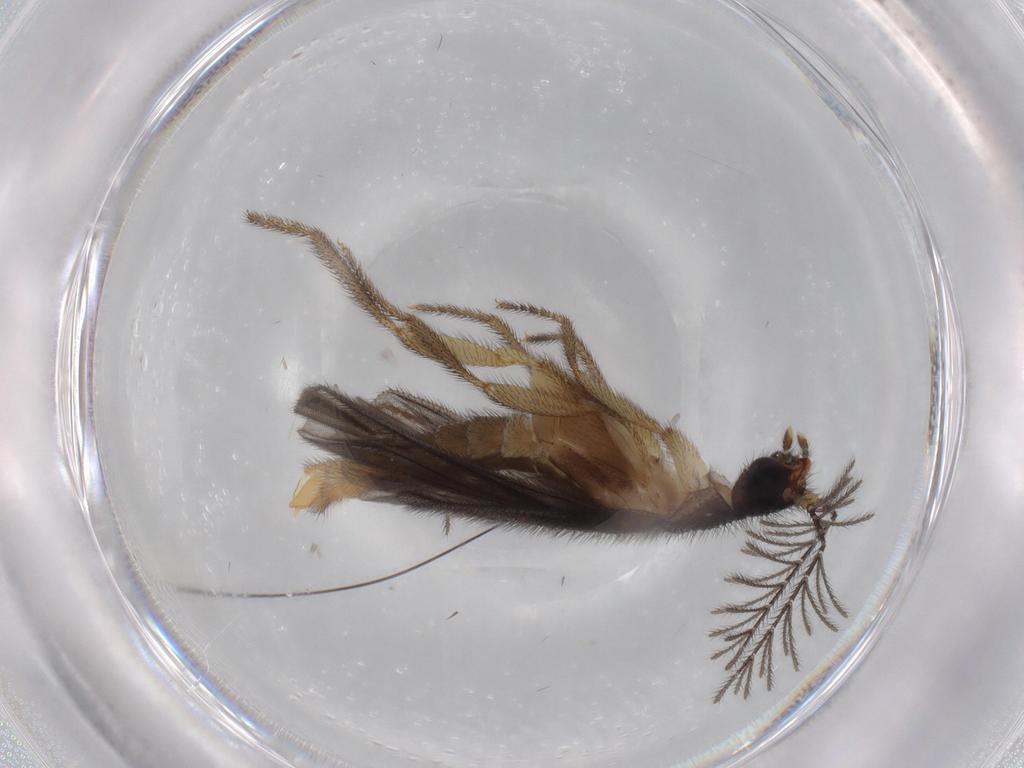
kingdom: Animalia
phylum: Arthropoda
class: Insecta
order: Coleoptera
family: Phengodidae
